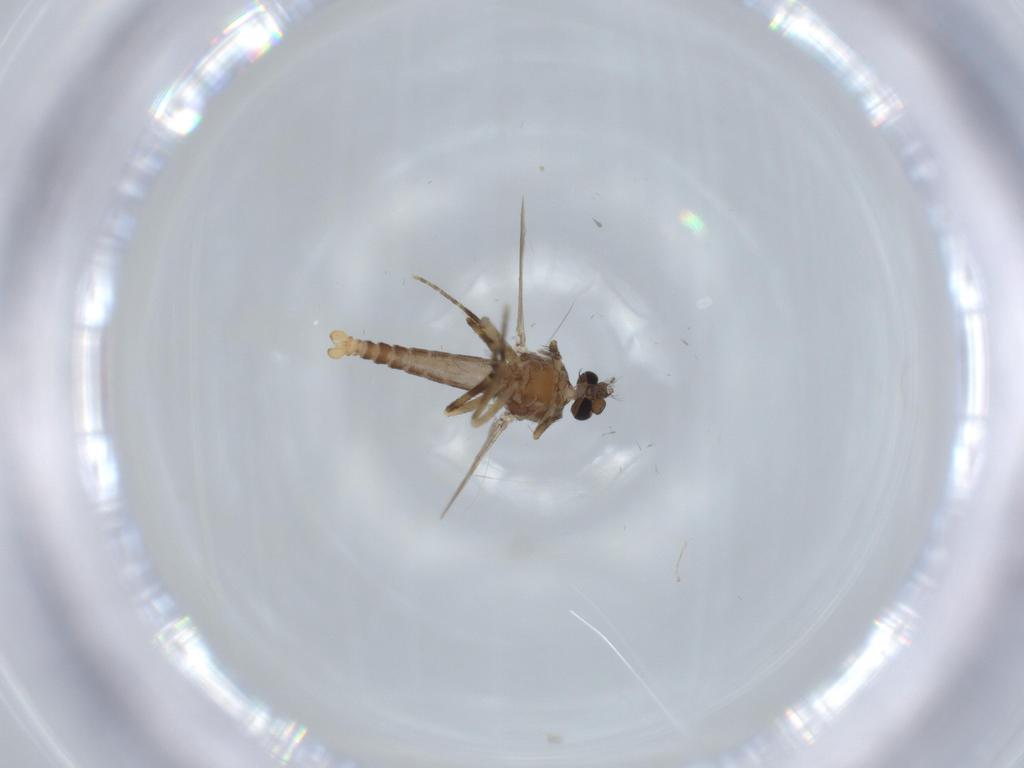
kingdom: Animalia
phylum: Arthropoda
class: Insecta
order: Diptera
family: Ceratopogonidae
